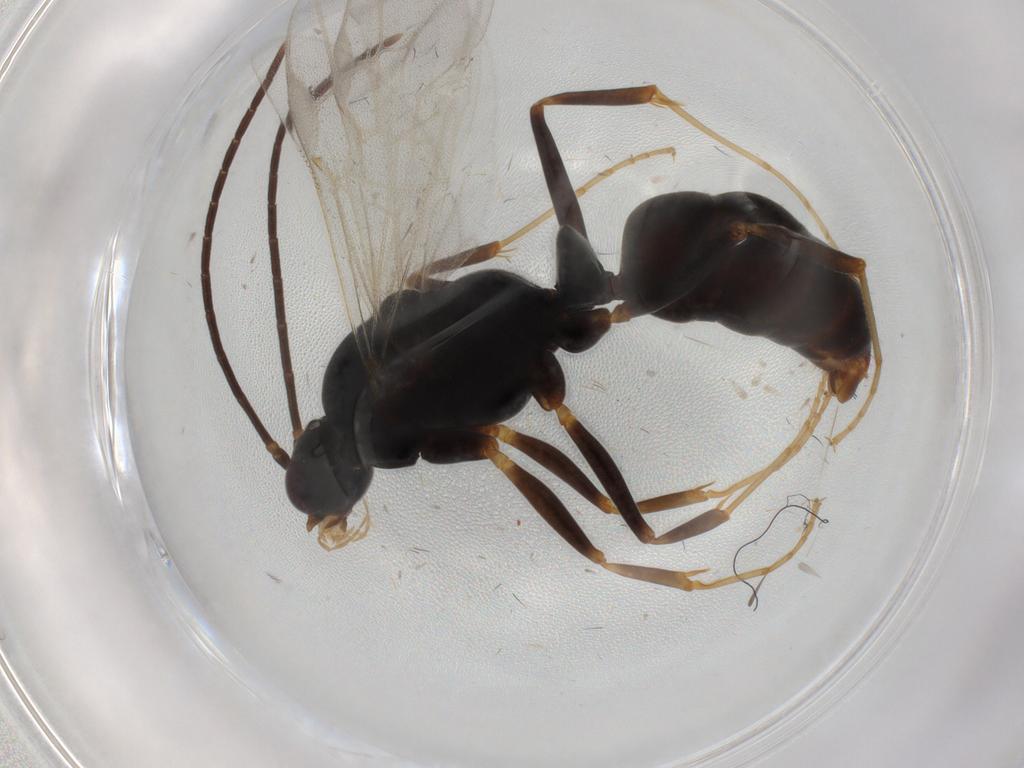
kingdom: Animalia
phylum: Arthropoda
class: Insecta
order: Hymenoptera
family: Formicidae
